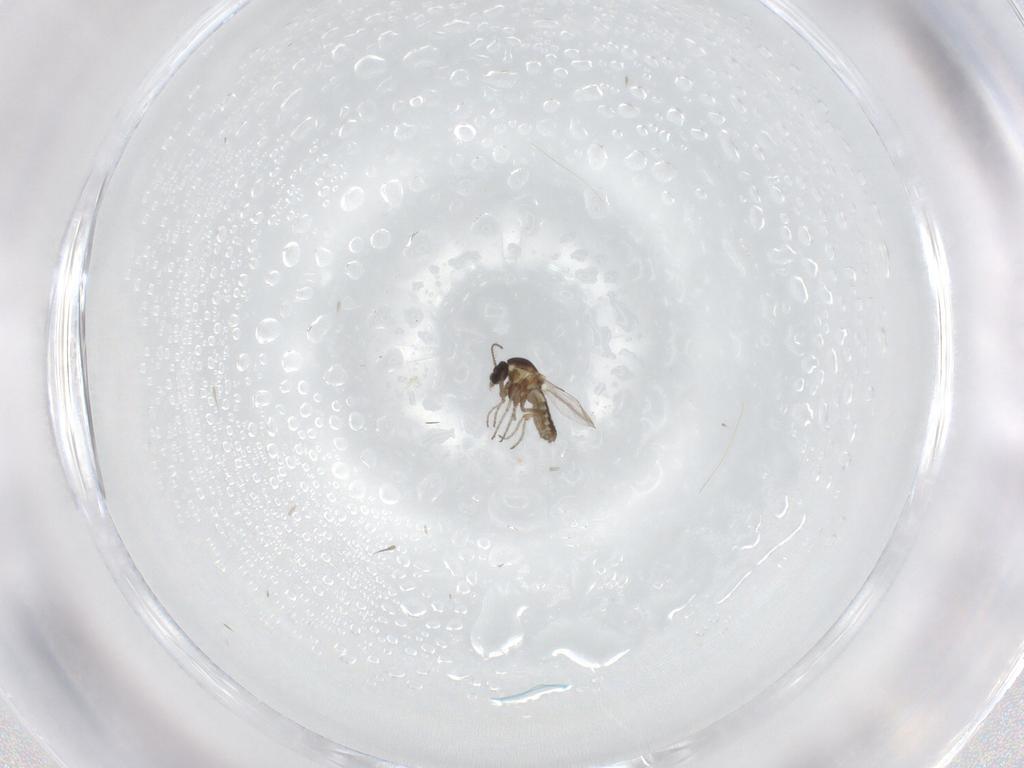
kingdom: Animalia
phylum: Arthropoda
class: Insecta
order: Diptera
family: Ceratopogonidae
